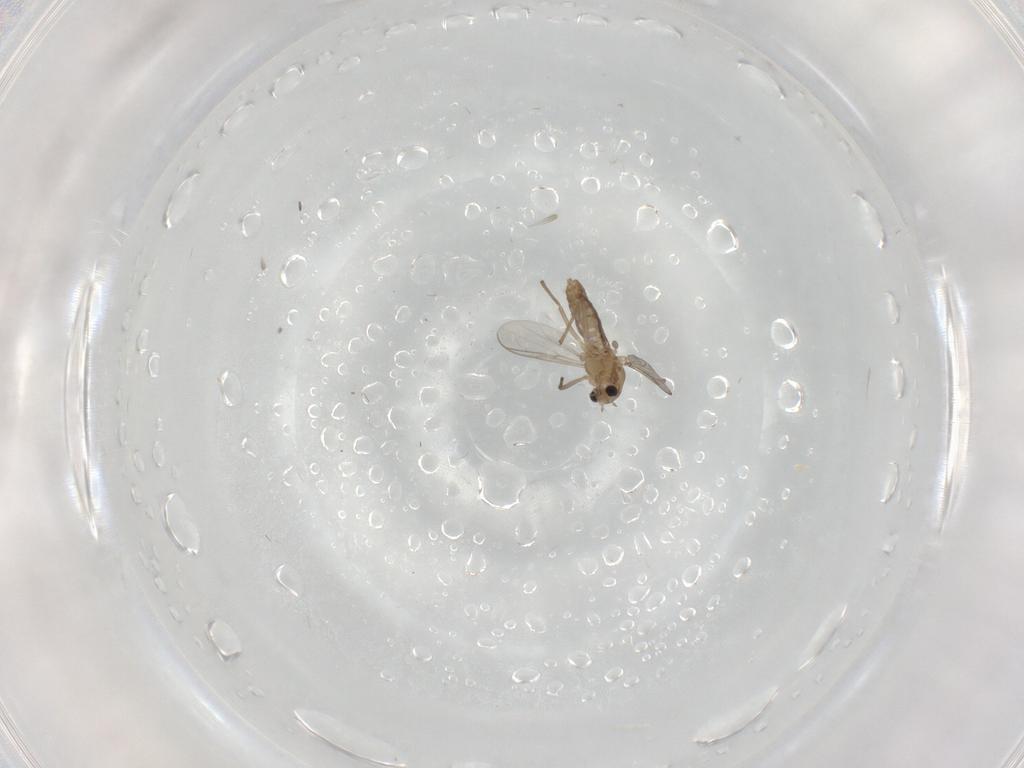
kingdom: Animalia
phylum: Arthropoda
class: Insecta
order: Diptera
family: Chironomidae
